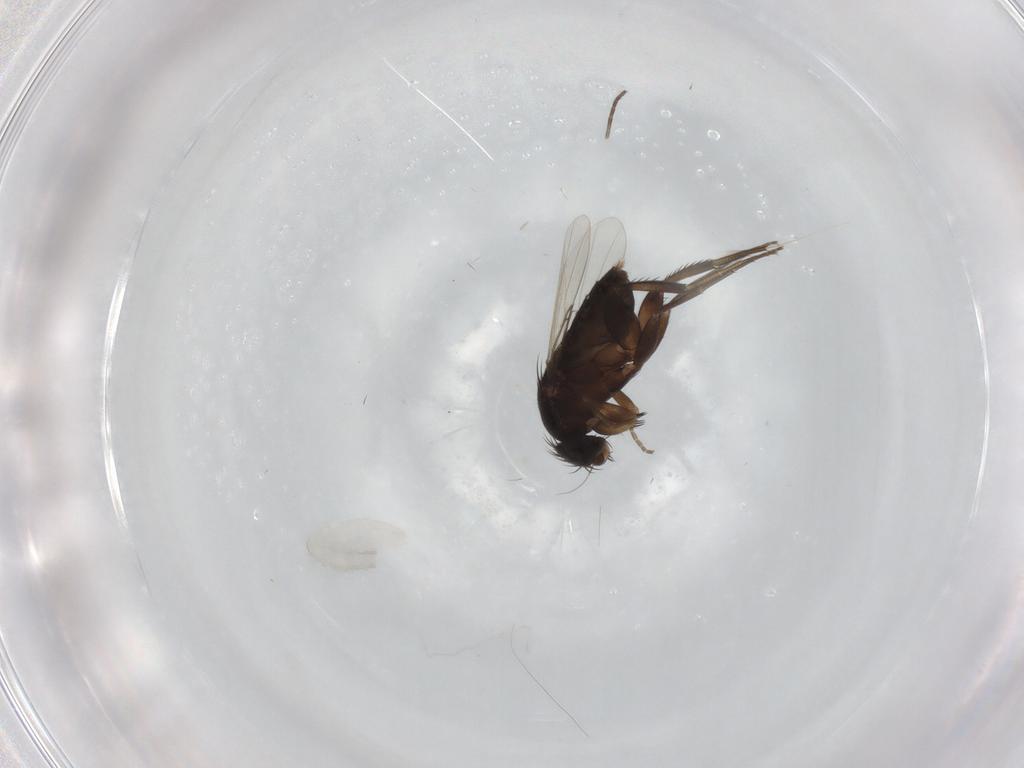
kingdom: Animalia
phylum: Arthropoda
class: Insecta
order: Diptera
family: Phoridae
